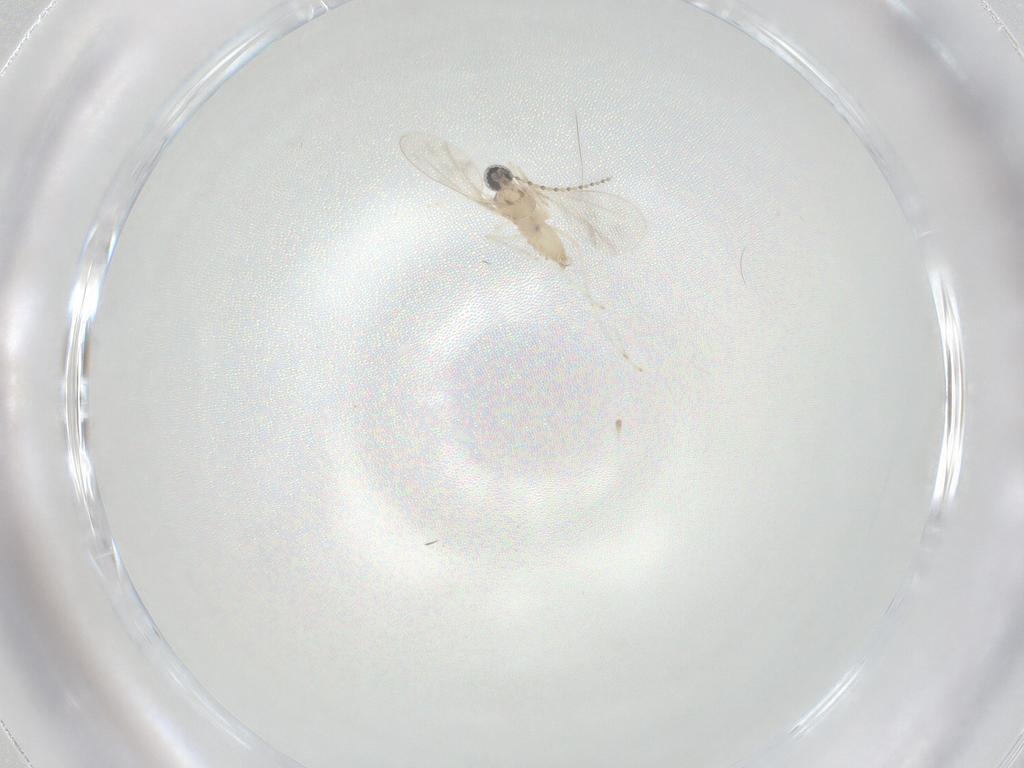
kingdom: Animalia
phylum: Arthropoda
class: Insecta
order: Diptera
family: Cecidomyiidae
